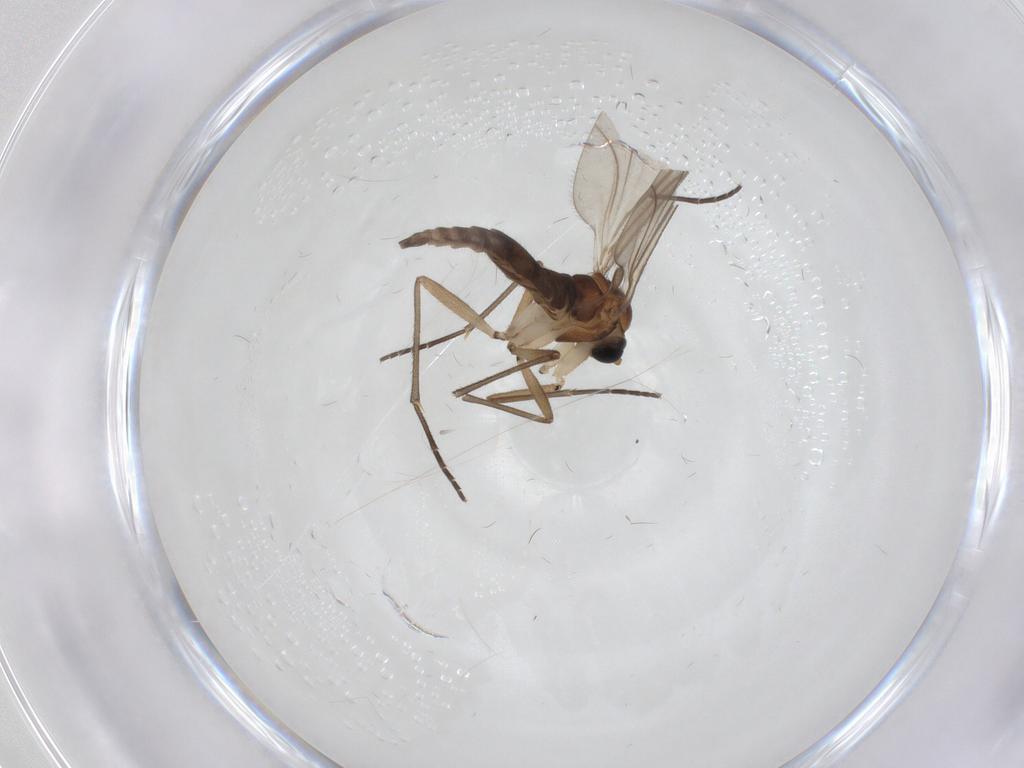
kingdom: Animalia
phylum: Arthropoda
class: Insecta
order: Diptera
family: Sciaridae
